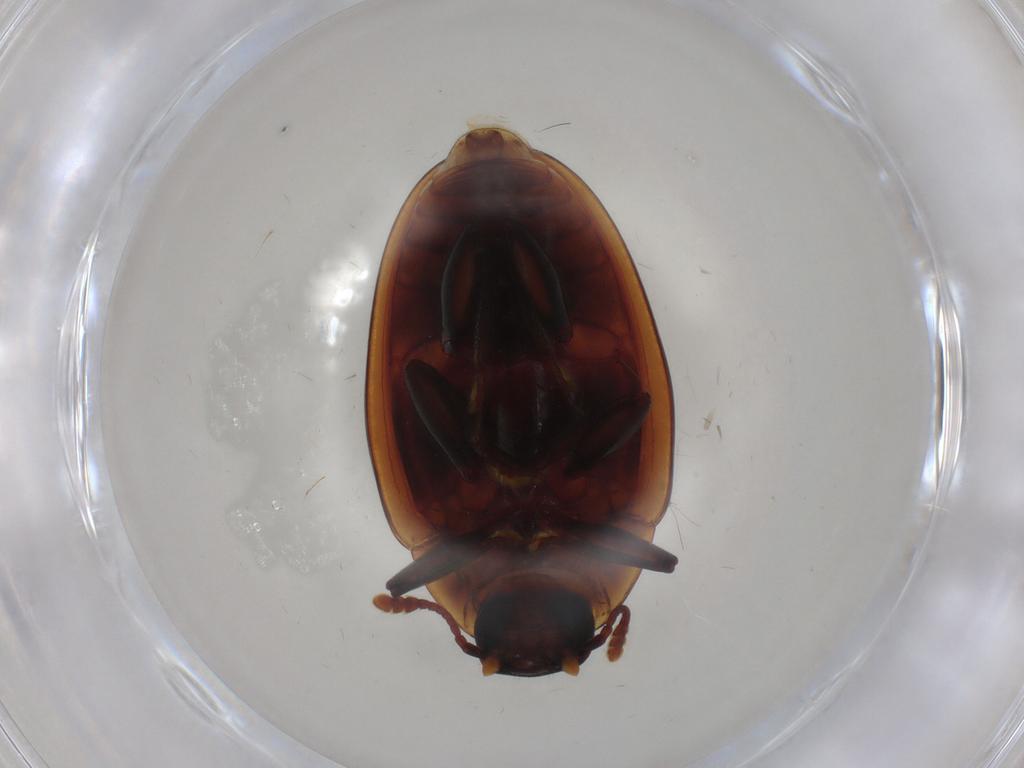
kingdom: Animalia
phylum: Arthropoda
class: Insecta
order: Coleoptera
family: Zopheridae
